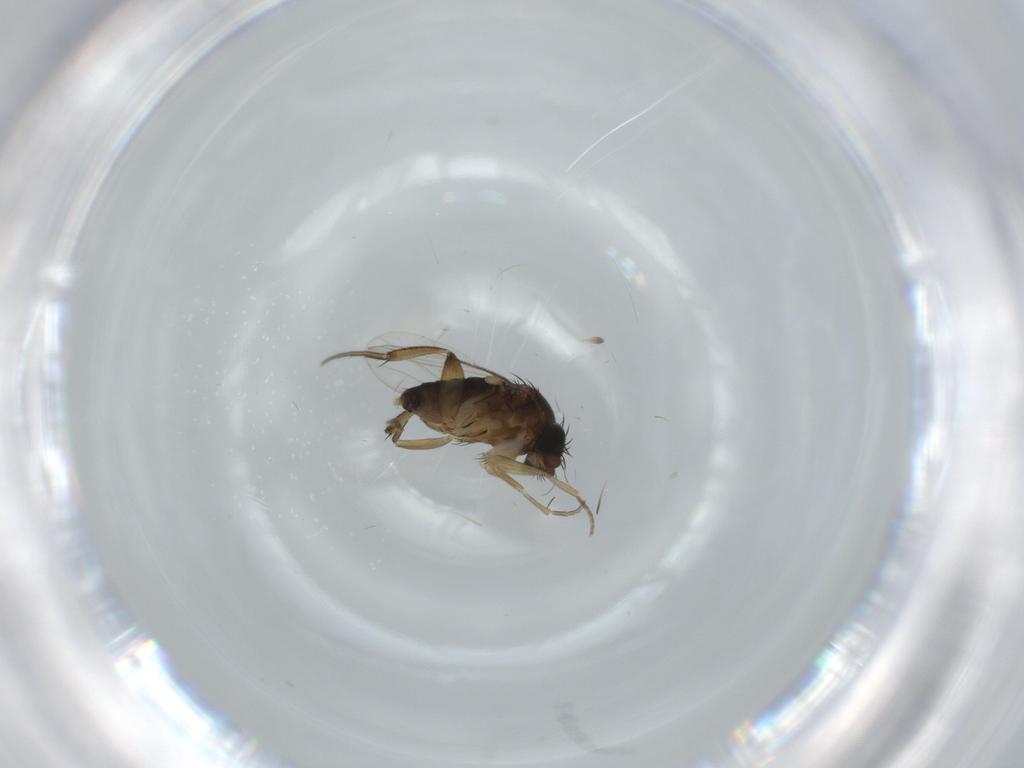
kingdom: Animalia
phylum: Arthropoda
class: Insecta
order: Diptera
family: Phoridae
